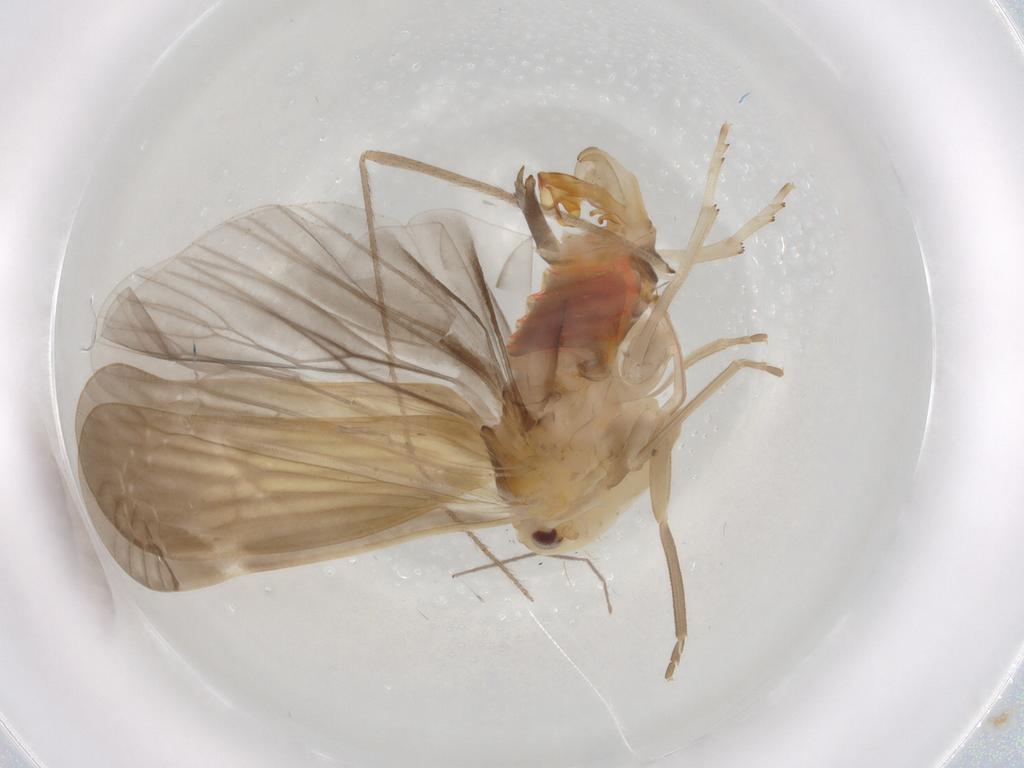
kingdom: Animalia
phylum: Arthropoda
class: Insecta
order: Hemiptera
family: Derbidae
